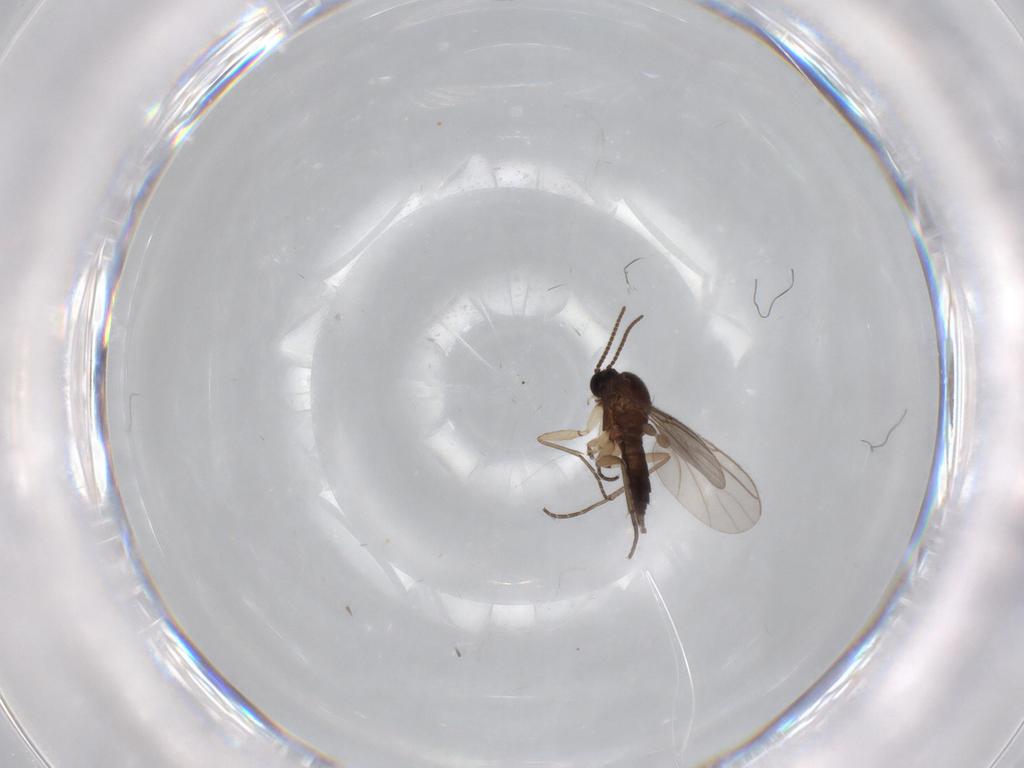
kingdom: Animalia
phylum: Arthropoda
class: Insecta
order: Diptera
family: Sciaridae
